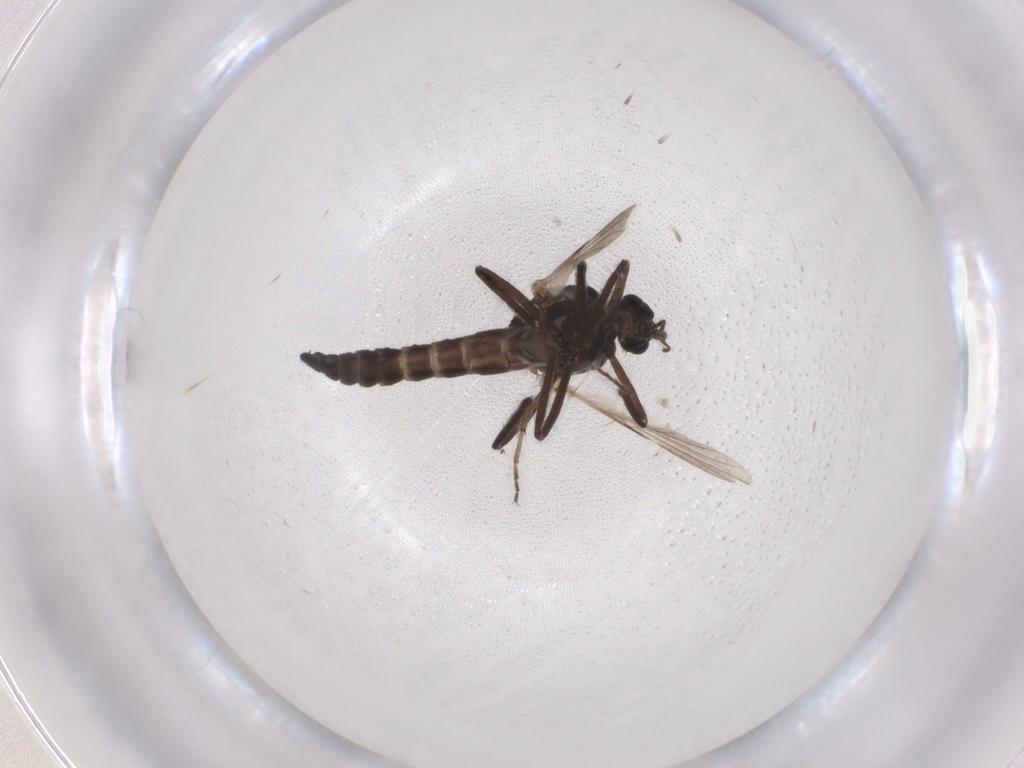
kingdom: Animalia
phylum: Arthropoda
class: Insecta
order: Diptera
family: Ceratopogonidae
